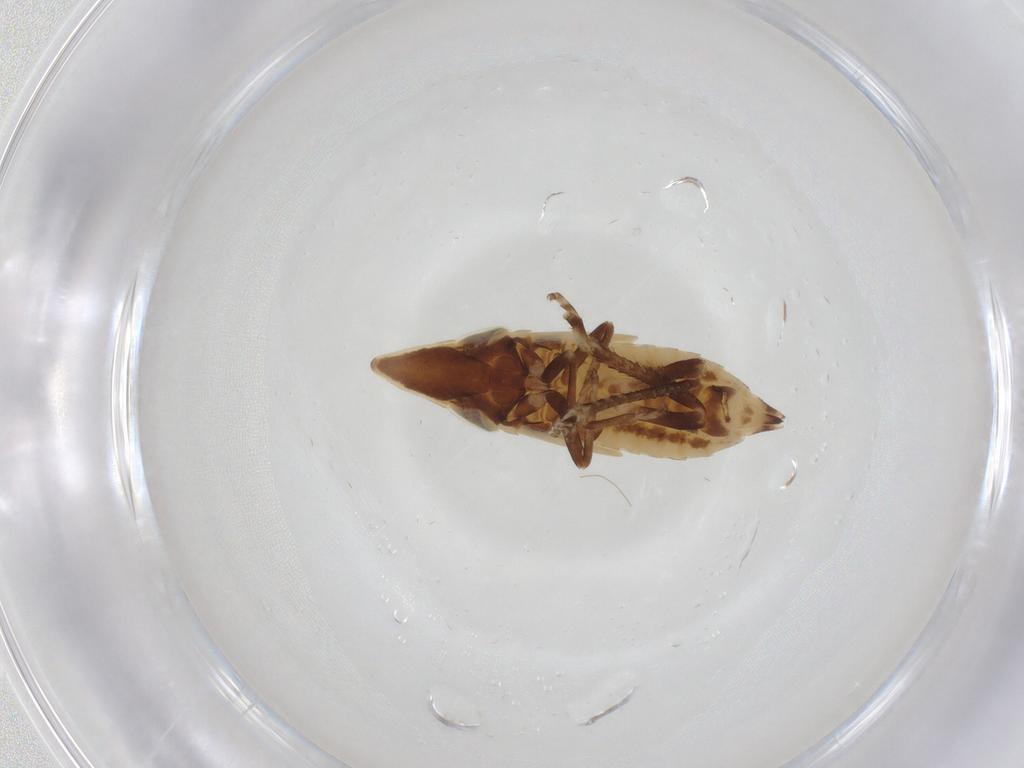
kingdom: Animalia
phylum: Arthropoda
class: Insecta
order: Hemiptera
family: Cicadellidae
